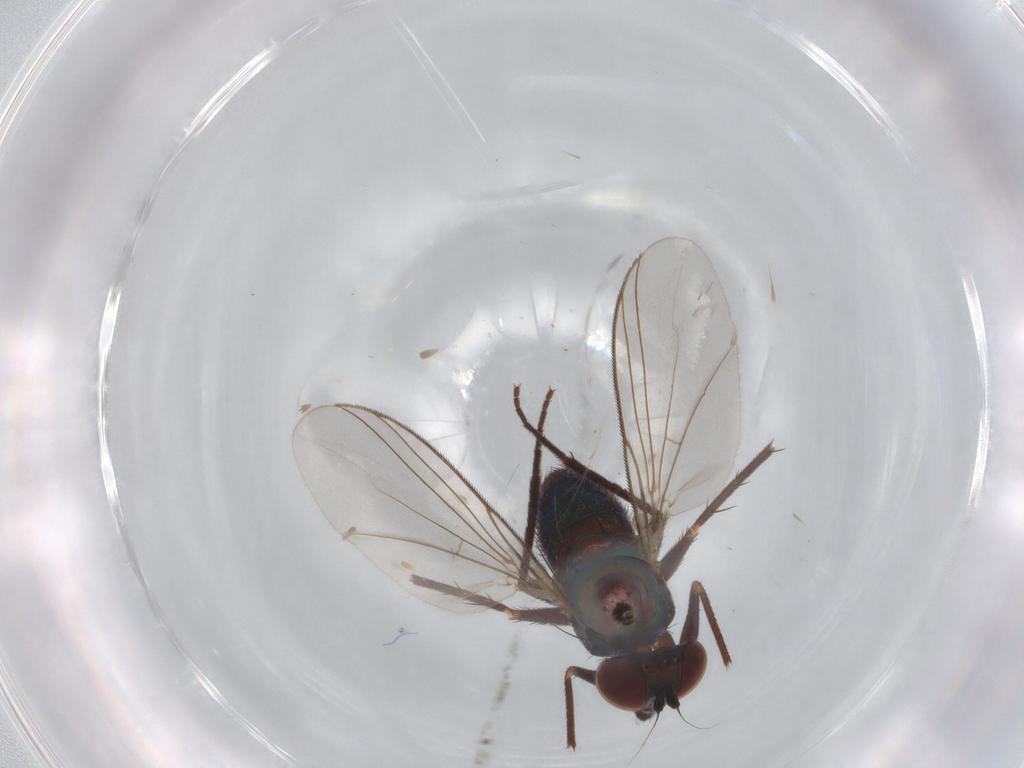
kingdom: Animalia
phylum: Arthropoda
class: Insecta
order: Diptera
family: Dolichopodidae
